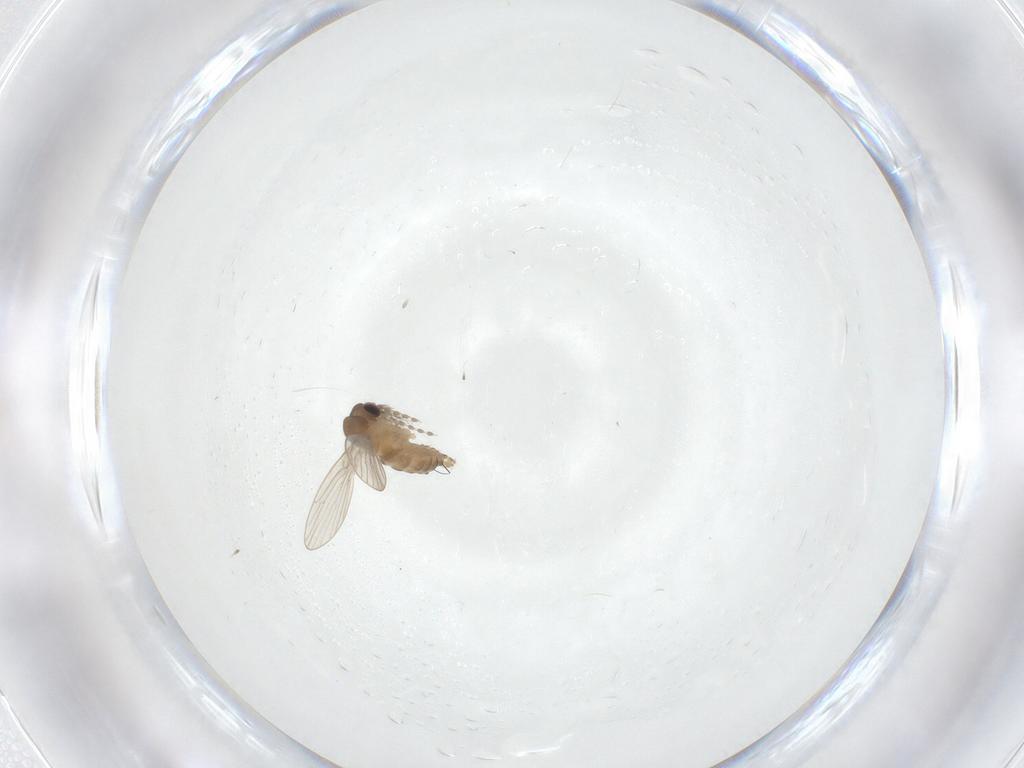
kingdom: Animalia
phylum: Arthropoda
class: Insecta
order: Diptera
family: Psychodidae
